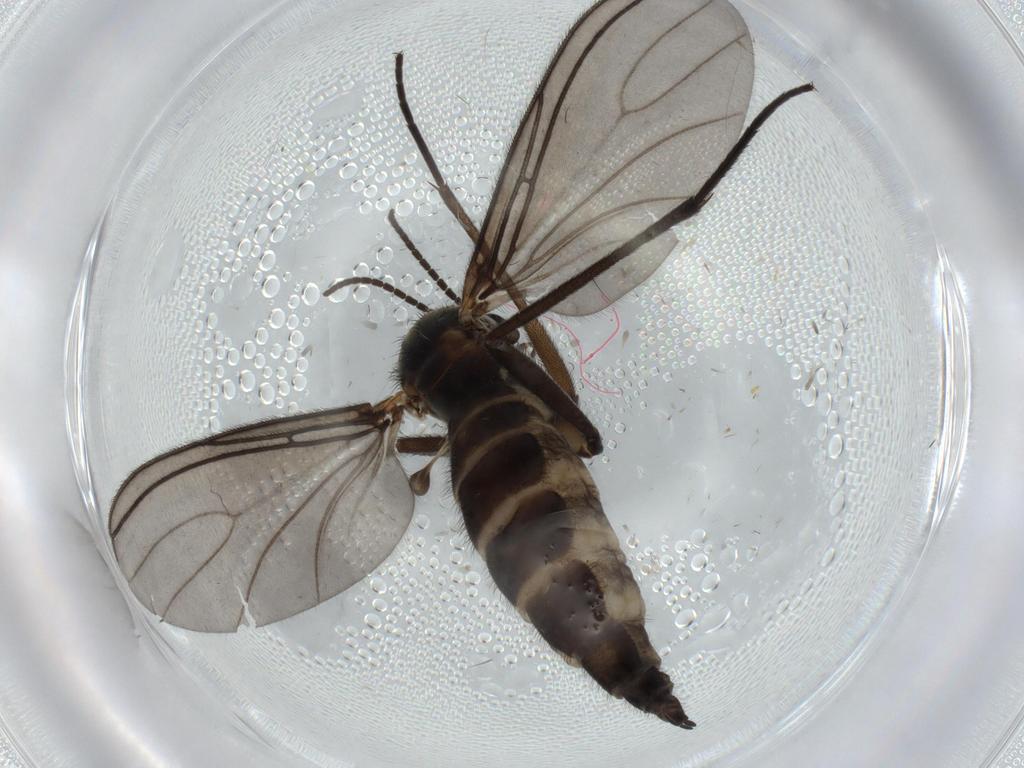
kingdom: Animalia
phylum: Arthropoda
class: Insecta
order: Diptera
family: Sciaridae
